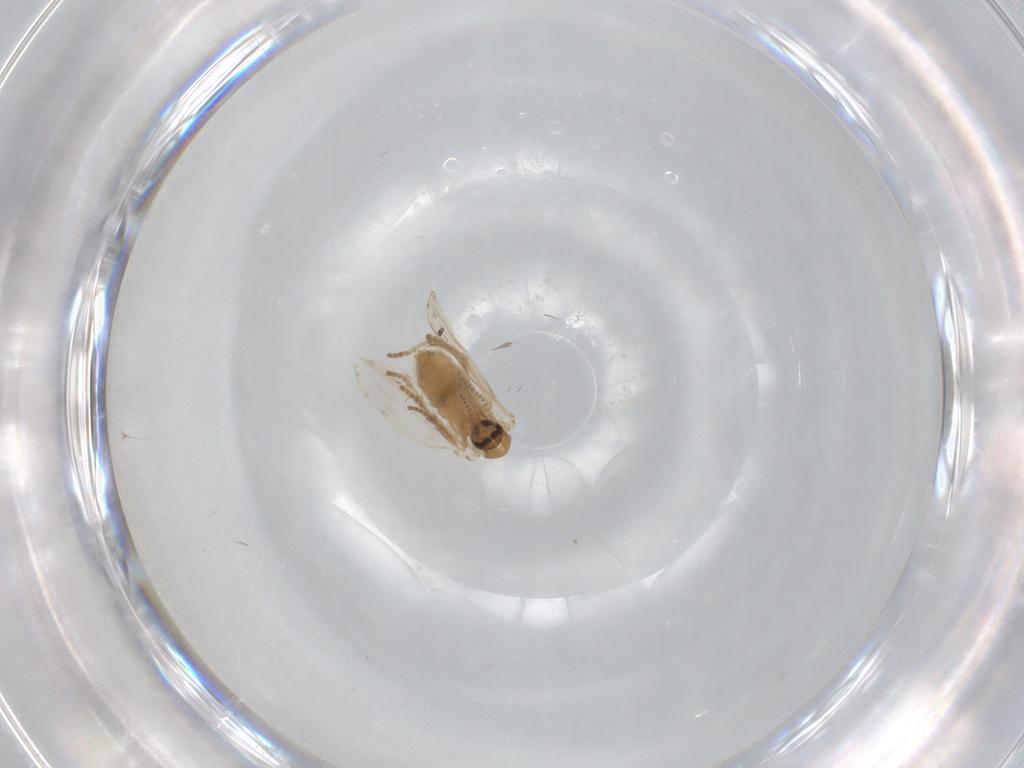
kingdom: Animalia
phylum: Arthropoda
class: Insecta
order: Diptera
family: Psychodidae
